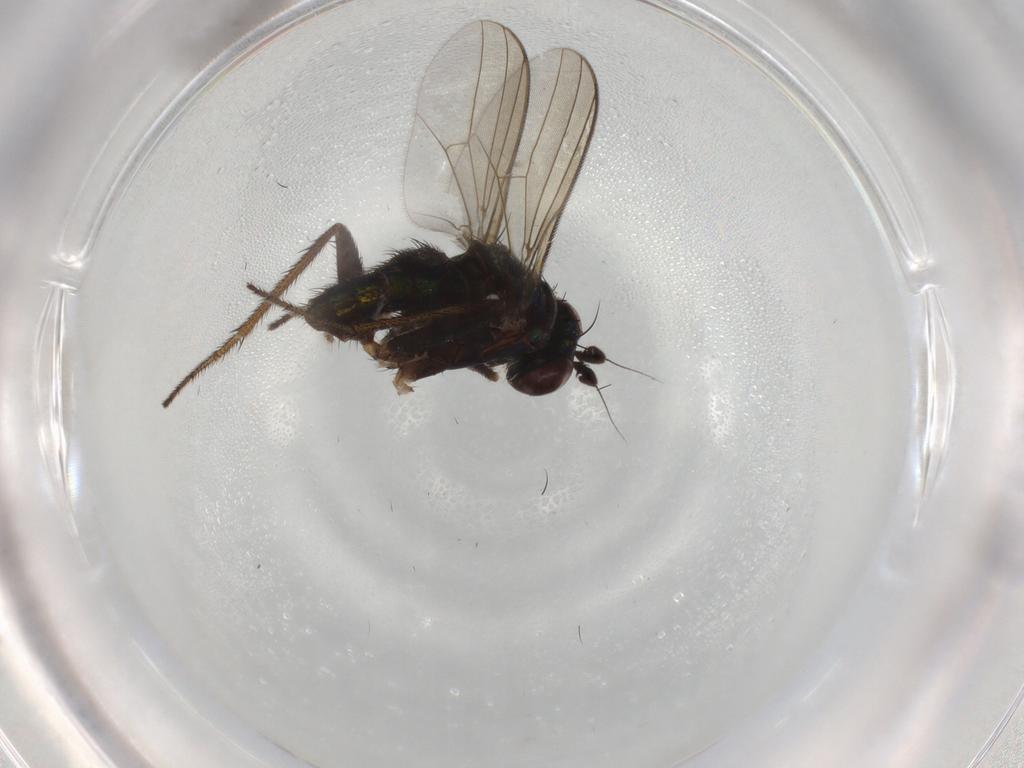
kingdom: Animalia
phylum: Arthropoda
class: Insecta
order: Diptera
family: Dolichopodidae
